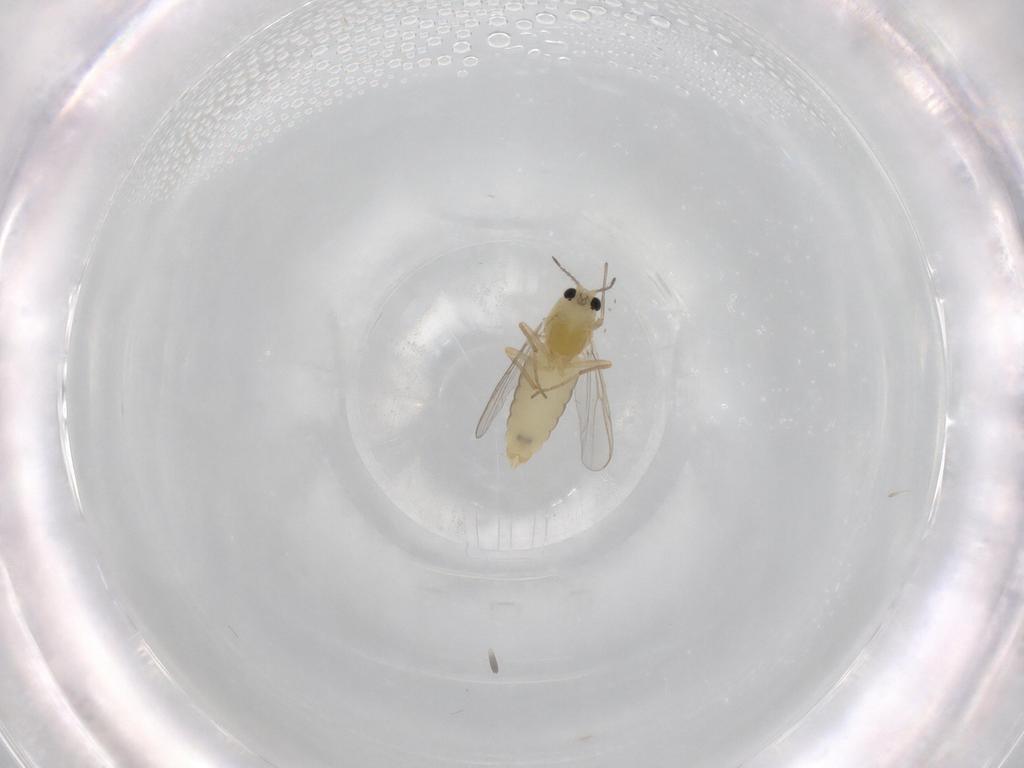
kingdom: Animalia
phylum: Arthropoda
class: Insecta
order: Diptera
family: Chironomidae
